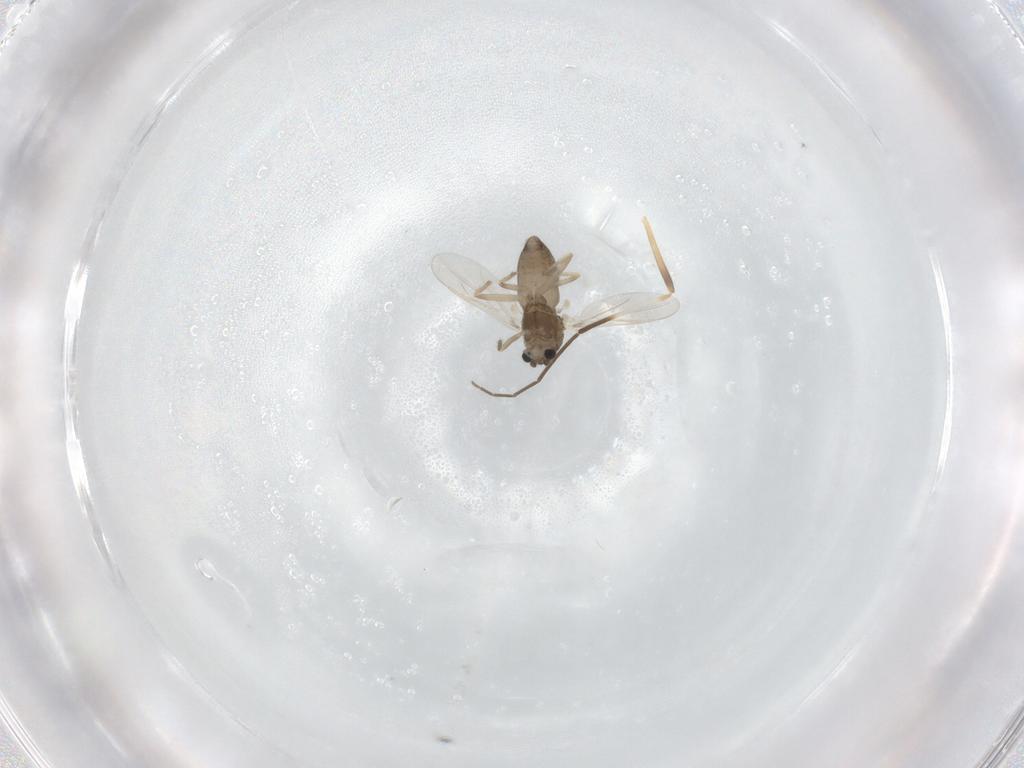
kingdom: Animalia
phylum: Arthropoda
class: Insecta
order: Diptera
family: Chironomidae
